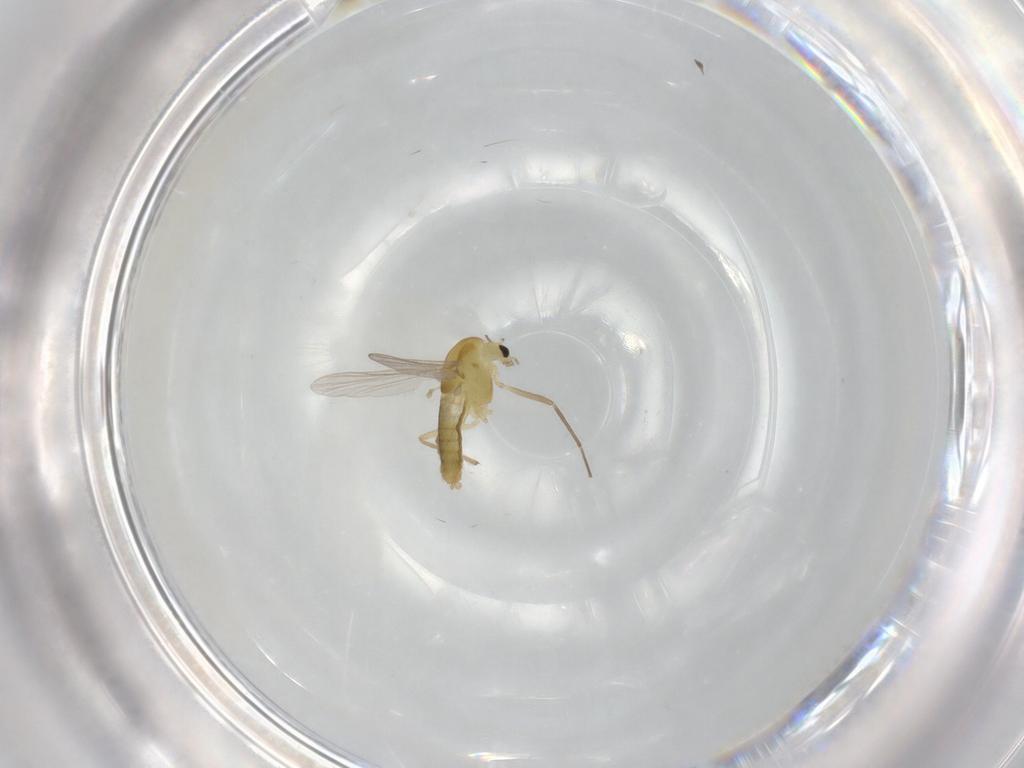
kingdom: Animalia
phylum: Arthropoda
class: Insecta
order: Diptera
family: Chironomidae
